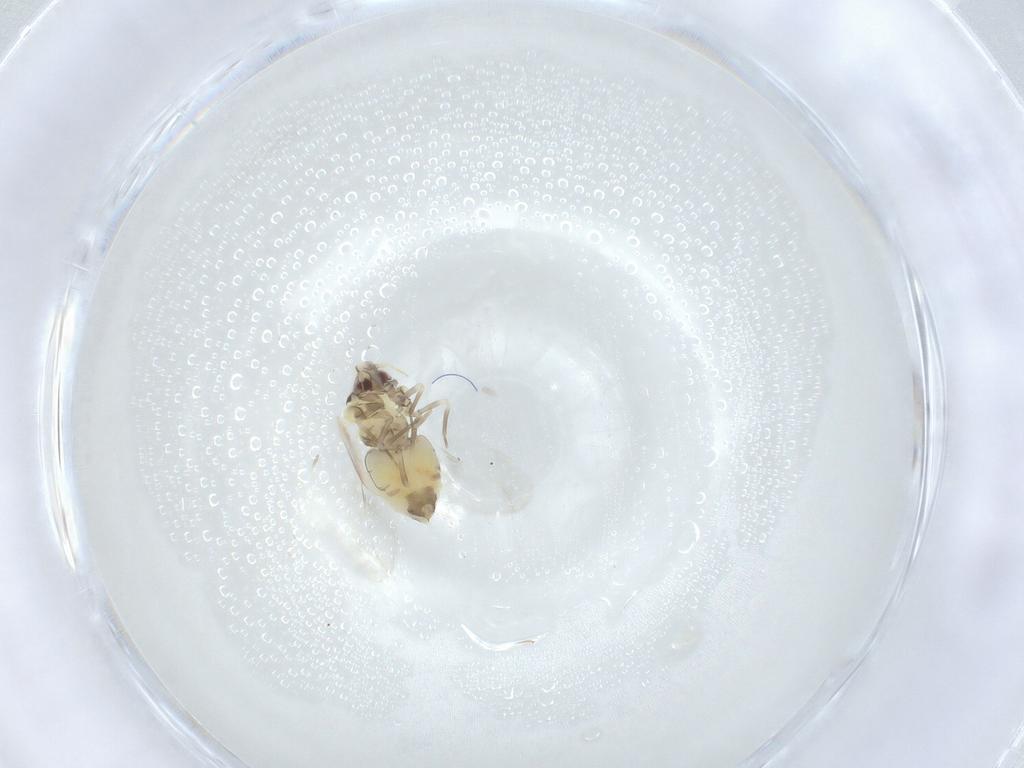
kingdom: Animalia
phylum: Arthropoda
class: Insecta
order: Hemiptera
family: Aleyrodidae
